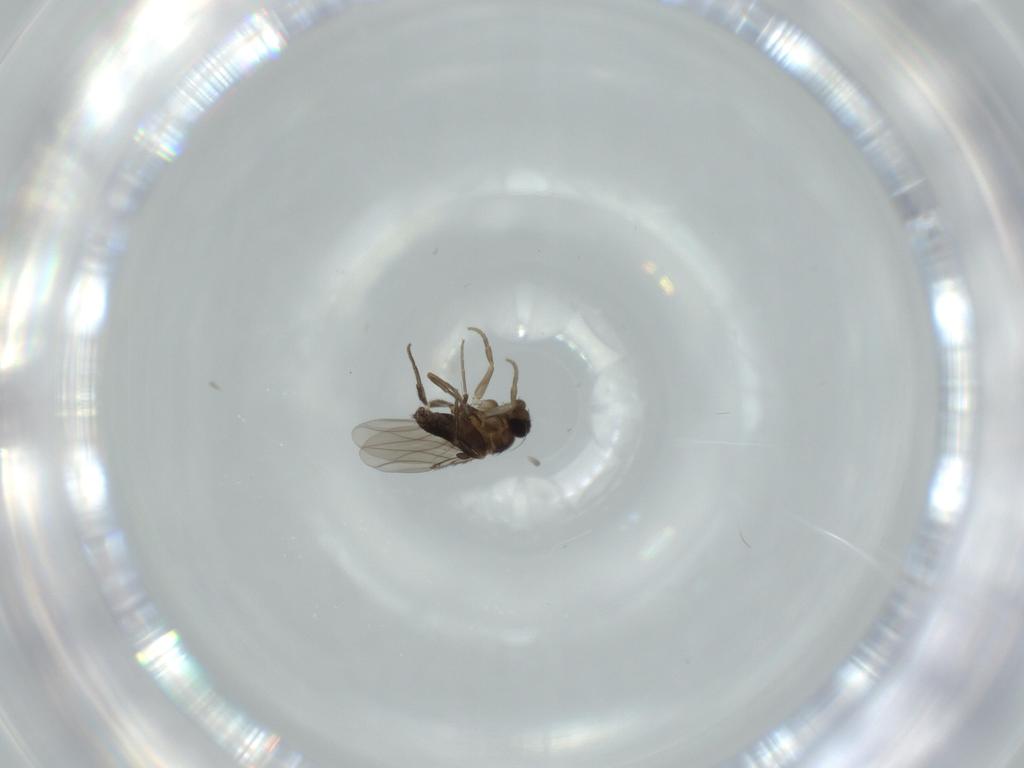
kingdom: Animalia
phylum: Arthropoda
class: Insecta
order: Diptera
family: Phoridae
